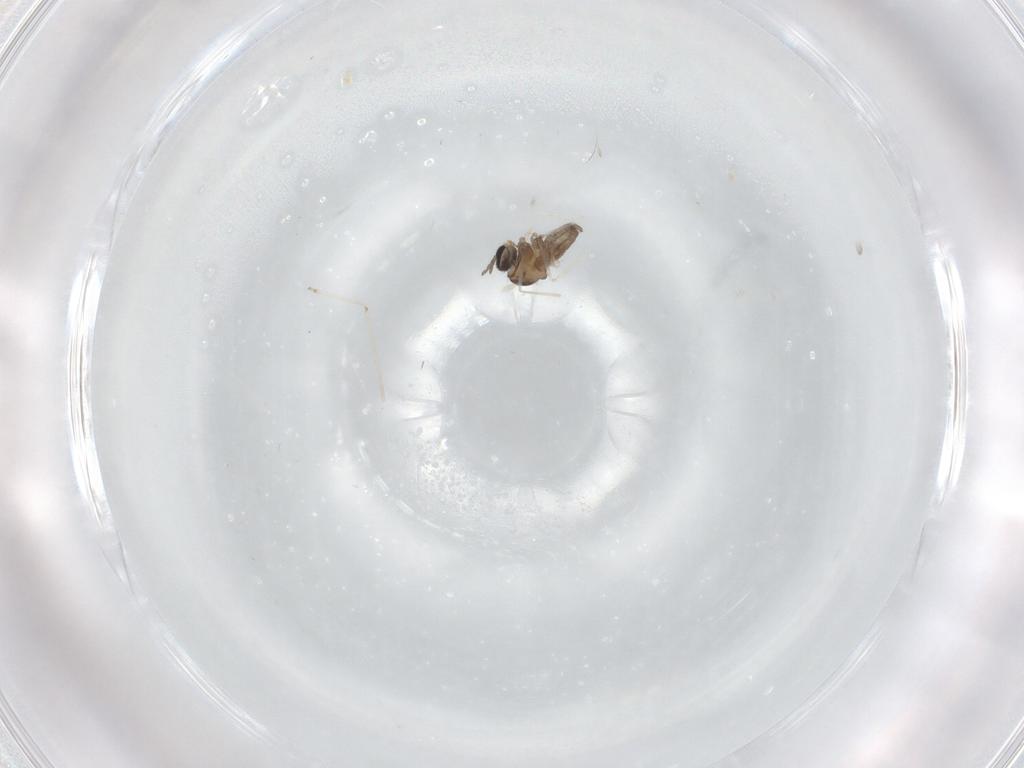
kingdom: Animalia
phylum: Arthropoda
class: Insecta
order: Diptera
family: Cecidomyiidae
